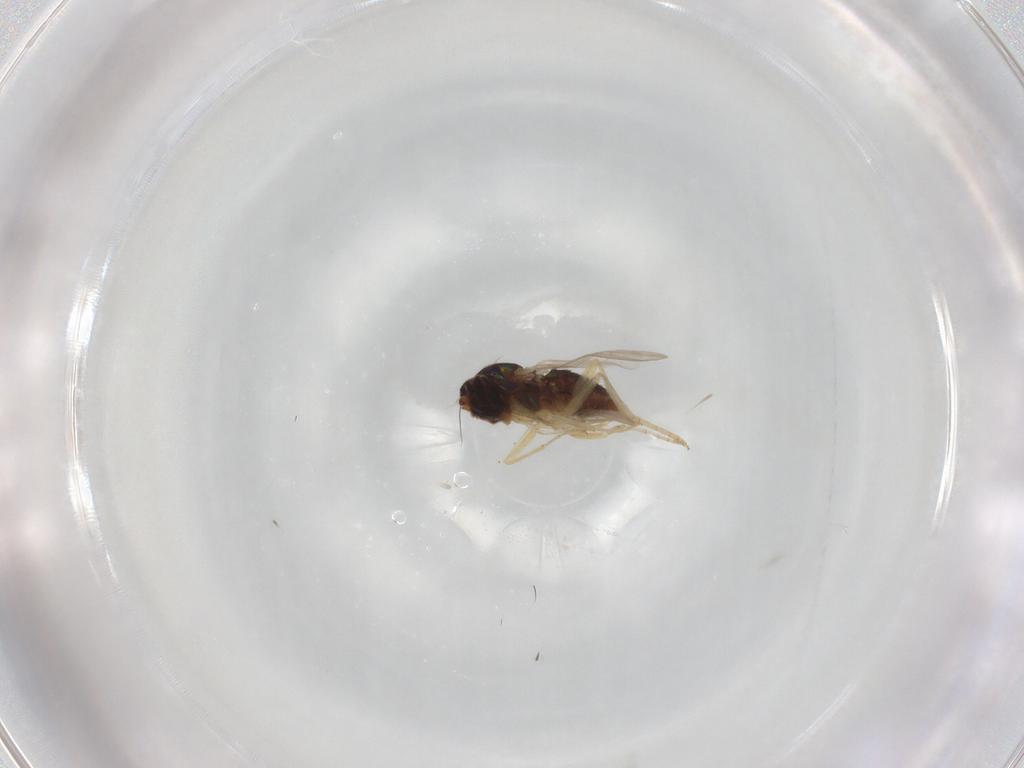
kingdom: Animalia
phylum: Arthropoda
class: Insecta
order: Diptera
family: Dolichopodidae
